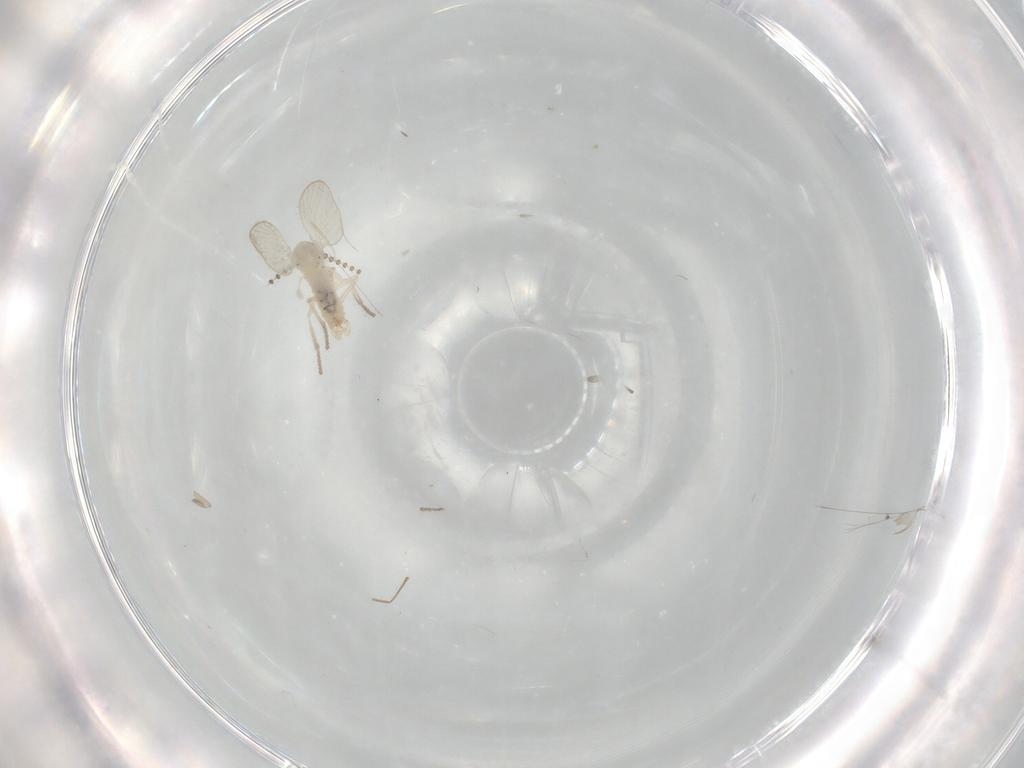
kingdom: Animalia
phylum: Arthropoda
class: Insecta
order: Diptera
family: Psychodidae
